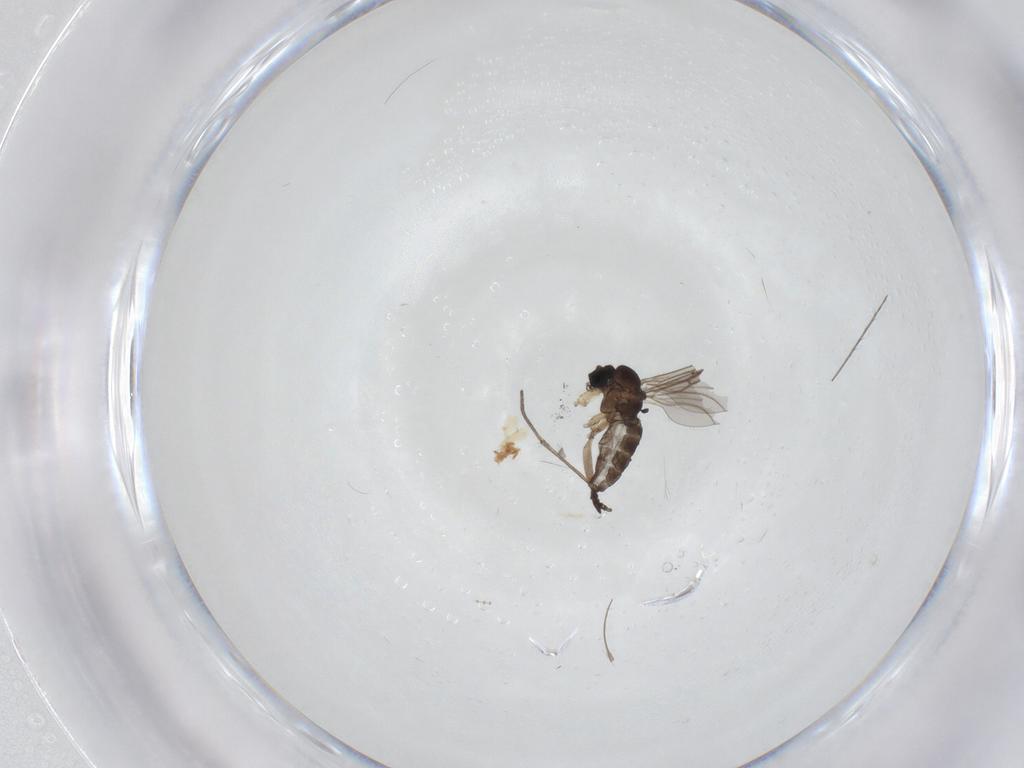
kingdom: Animalia
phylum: Arthropoda
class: Insecta
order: Diptera
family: Sciaridae
